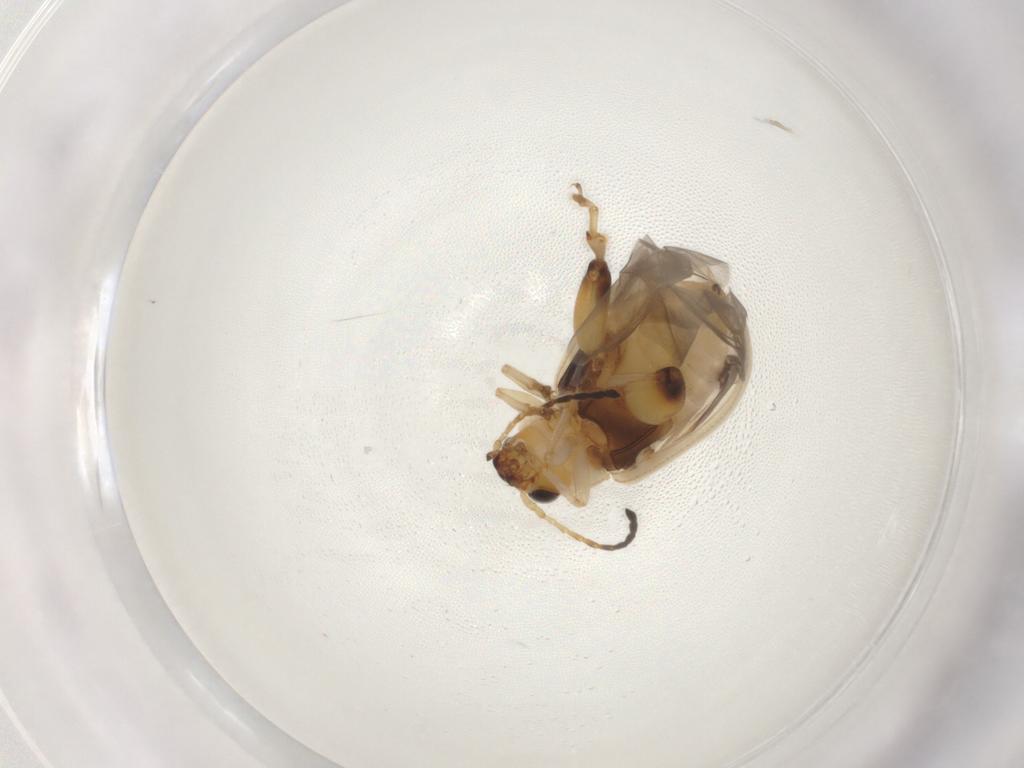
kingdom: Animalia
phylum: Arthropoda
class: Insecta
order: Coleoptera
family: Chrysomelidae
